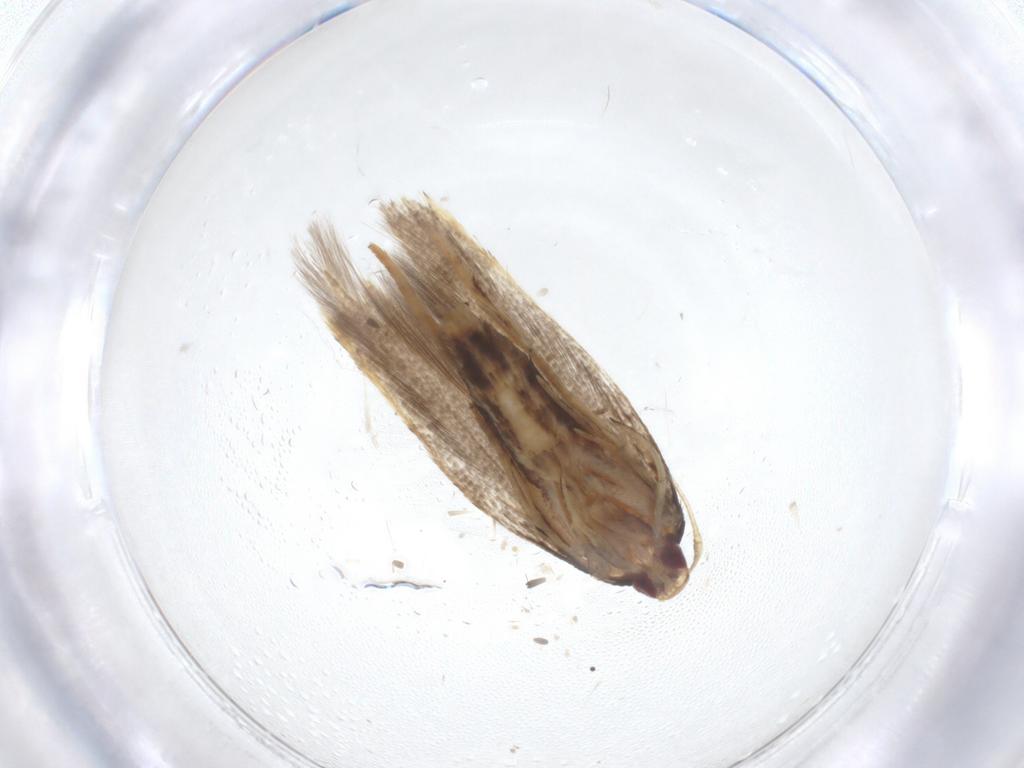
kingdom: Animalia
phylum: Arthropoda
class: Insecta
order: Lepidoptera
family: Cosmopterigidae
